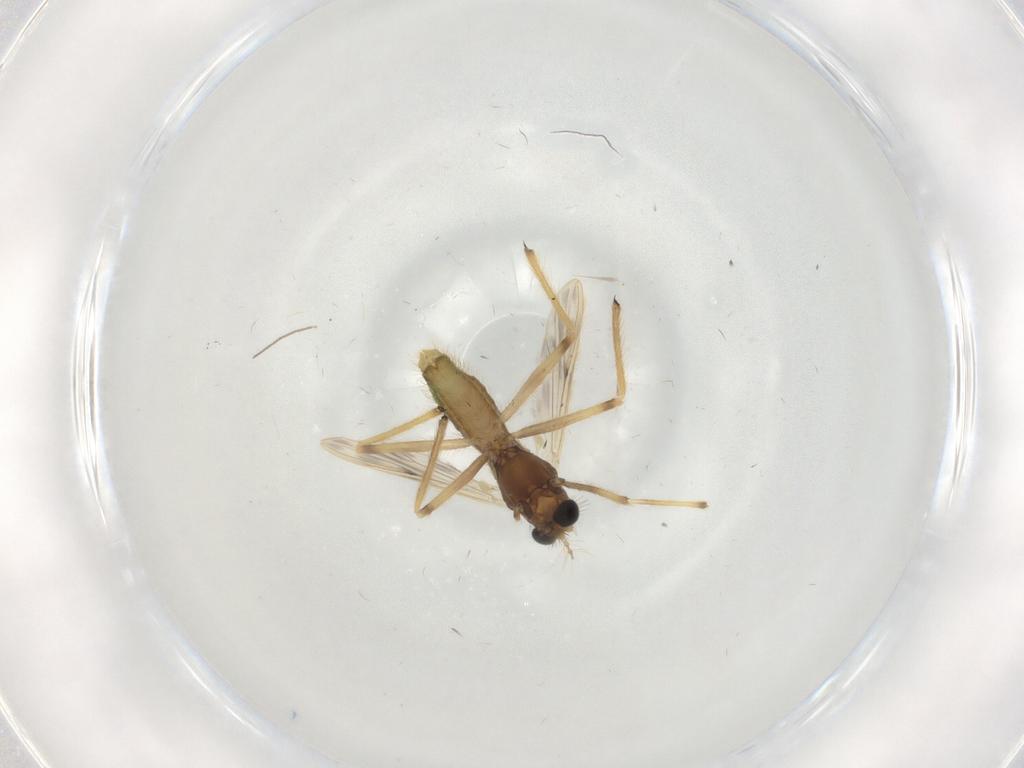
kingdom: Animalia
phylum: Arthropoda
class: Insecta
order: Diptera
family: Chironomidae
